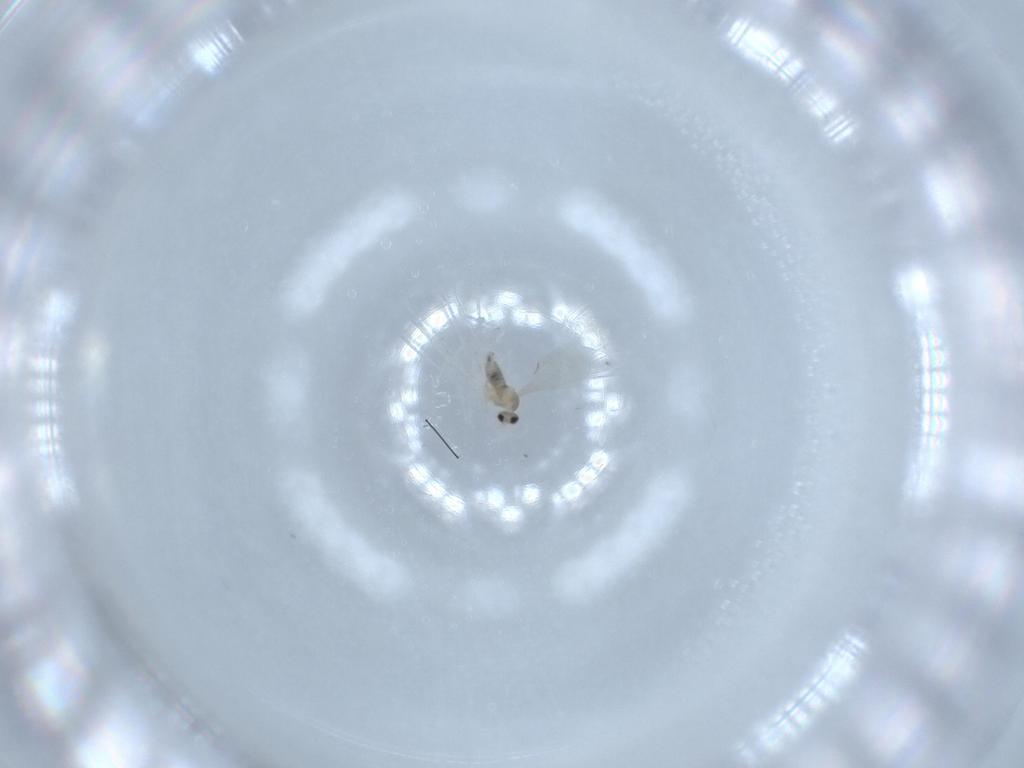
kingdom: Animalia
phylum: Arthropoda
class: Insecta
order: Diptera
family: Cecidomyiidae
